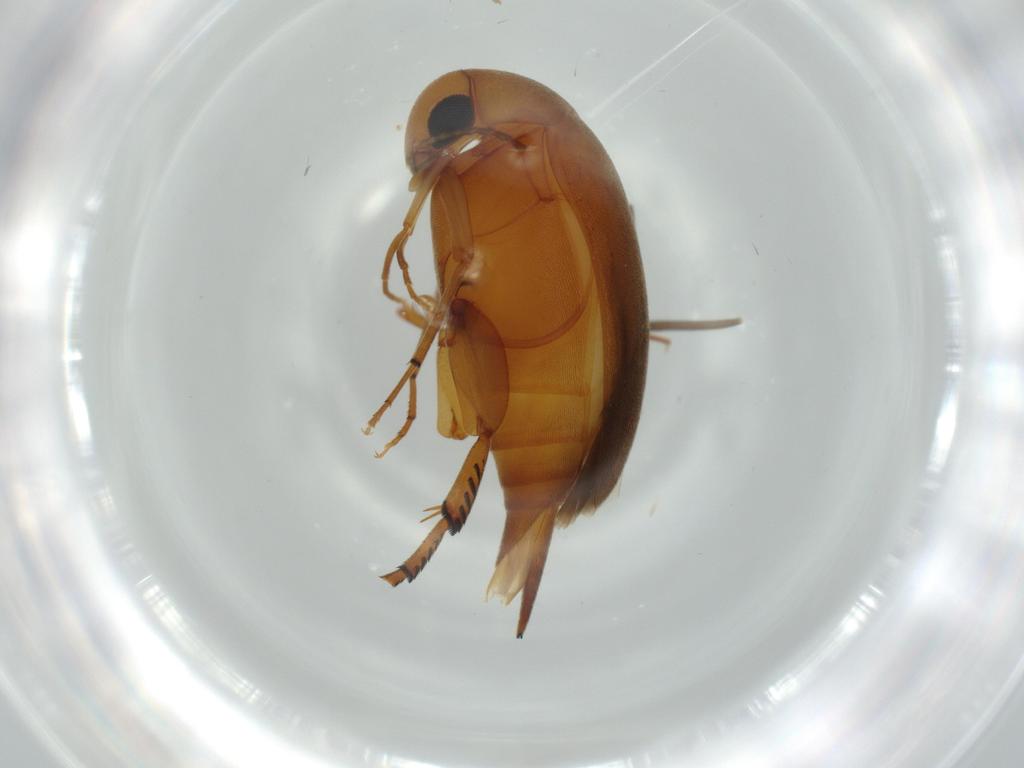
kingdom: Animalia
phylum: Arthropoda
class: Insecta
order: Coleoptera
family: Mordellidae
